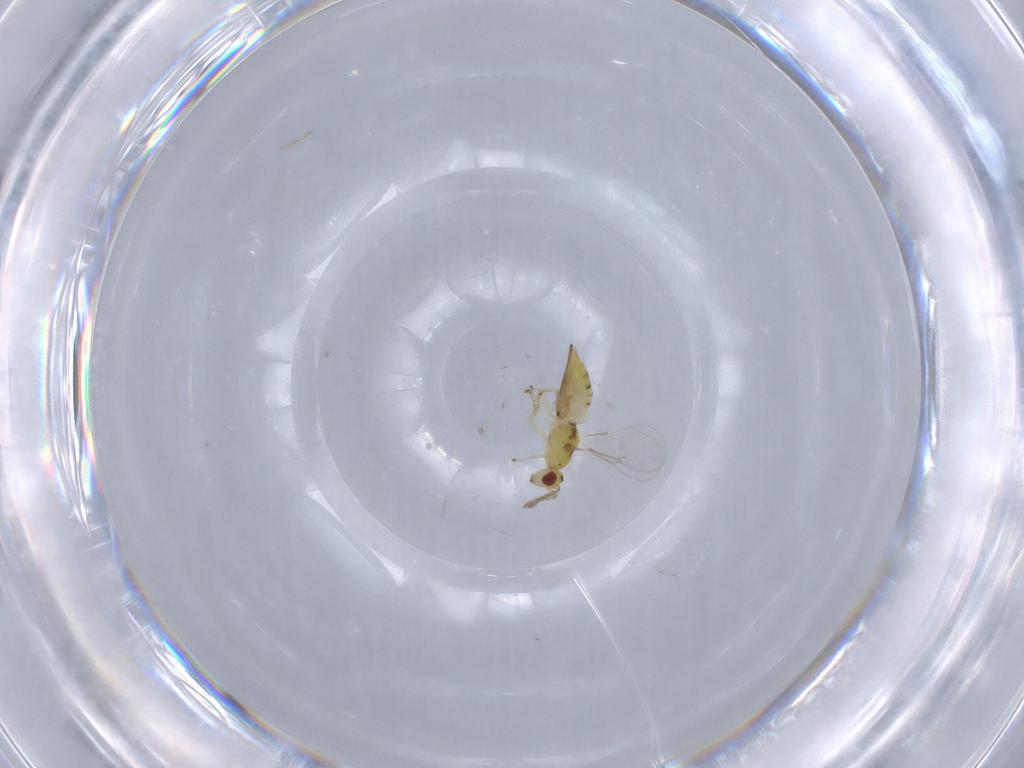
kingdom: Animalia
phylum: Arthropoda
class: Insecta
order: Hymenoptera
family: Eulophidae
